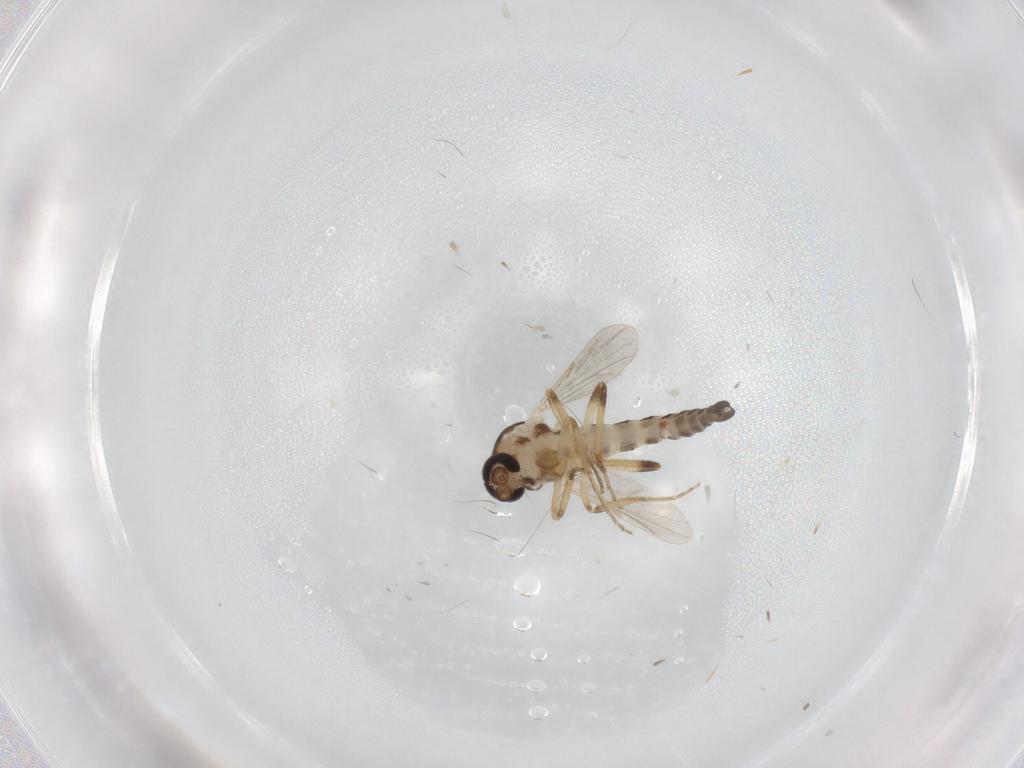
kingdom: Animalia
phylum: Arthropoda
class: Insecta
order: Diptera
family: Ceratopogonidae
